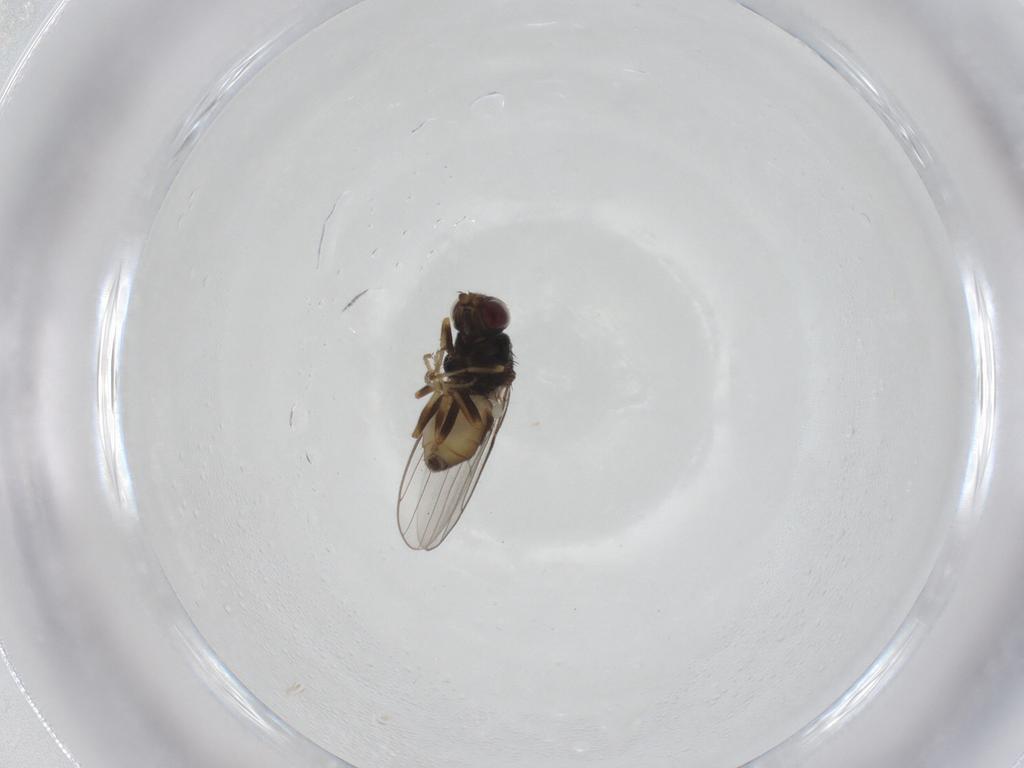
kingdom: Animalia
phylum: Arthropoda
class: Insecta
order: Diptera
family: Chloropidae
